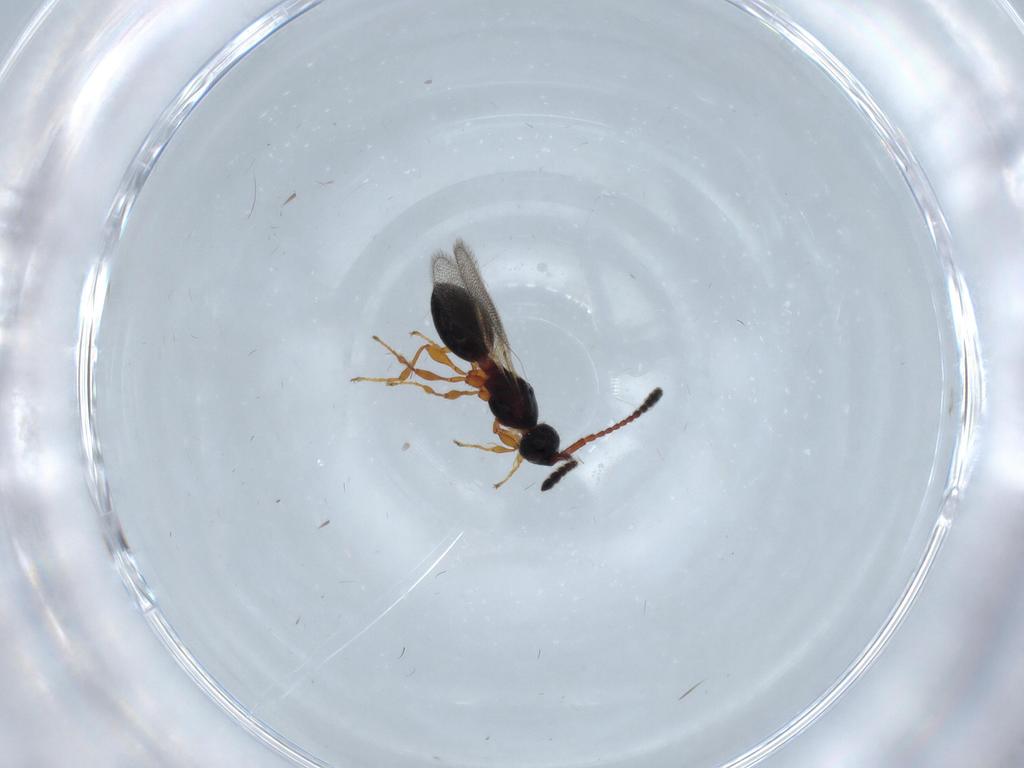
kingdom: Animalia
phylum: Arthropoda
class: Insecta
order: Hymenoptera
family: Diapriidae
